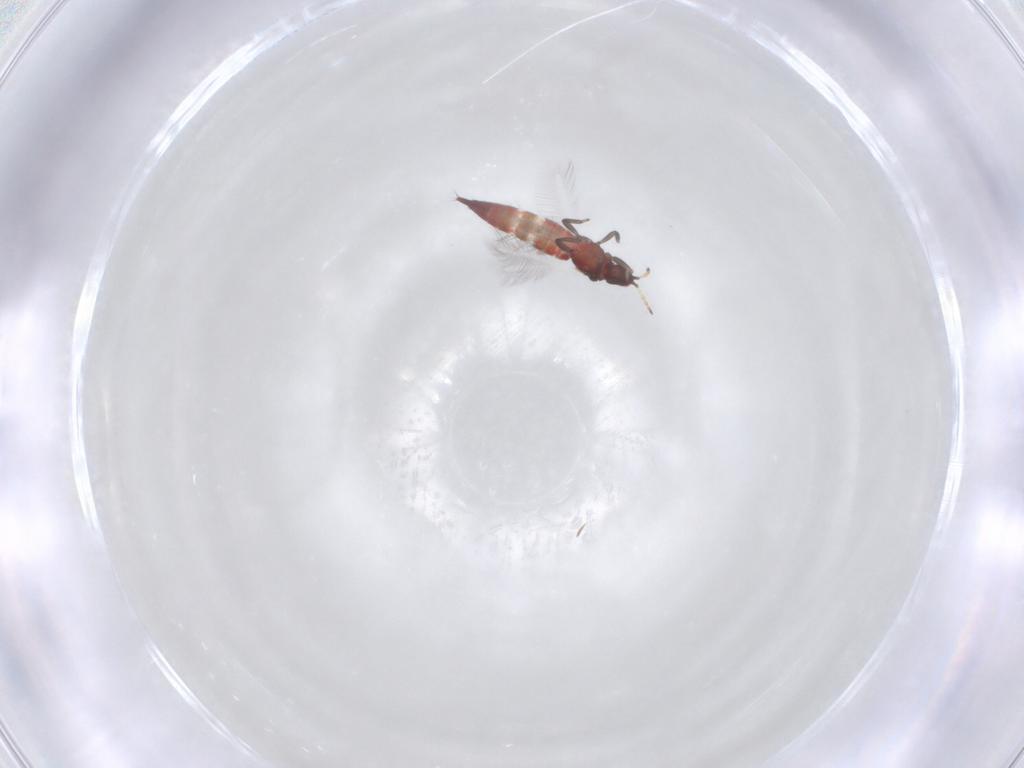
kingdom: Animalia
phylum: Arthropoda
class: Insecta
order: Thysanoptera
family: Phlaeothripidae
